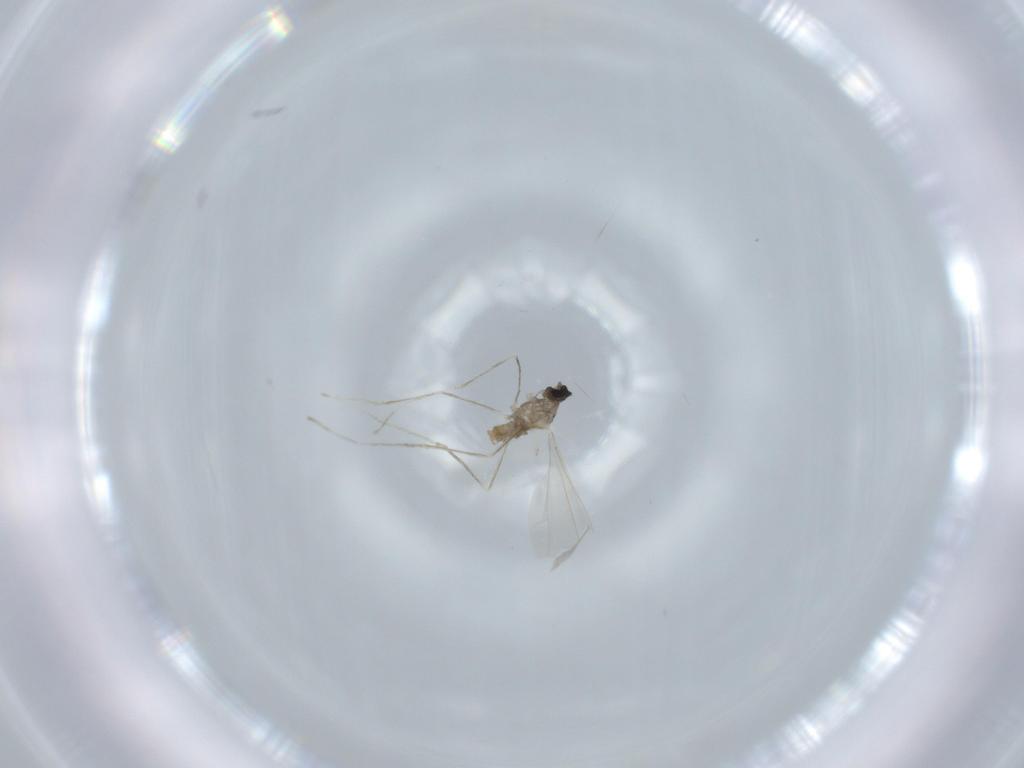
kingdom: Animalia
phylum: Arthropoda
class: Insecta
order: Diptera
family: Cecidomyiidae
